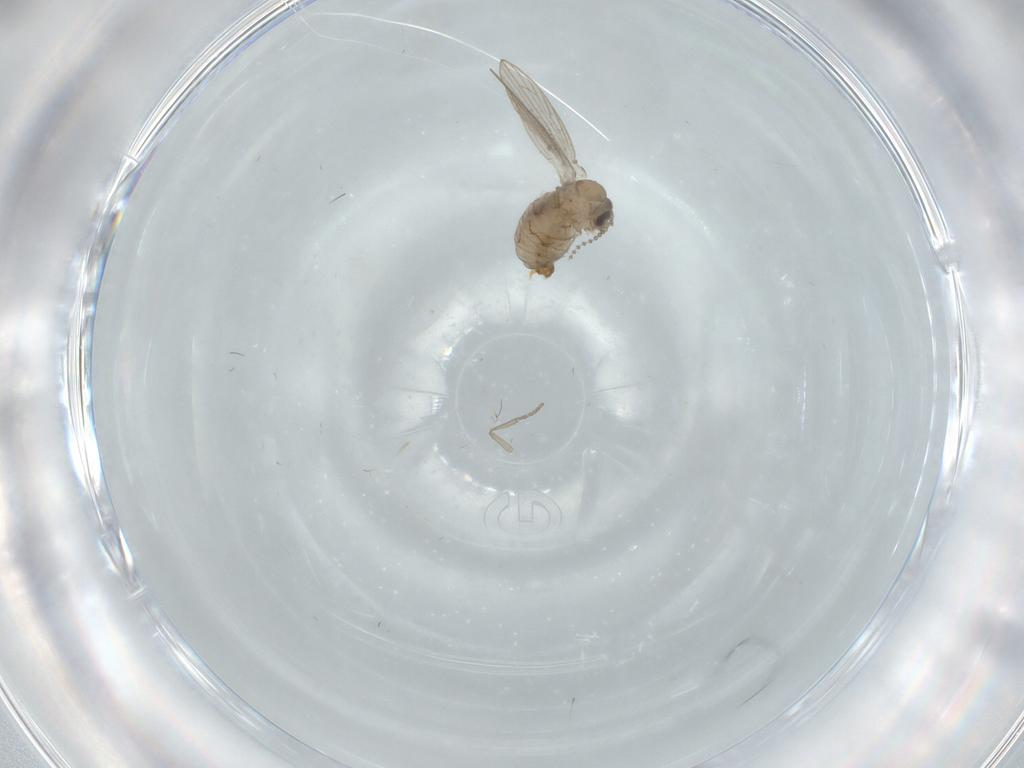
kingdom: Animalia
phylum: Arthropoda
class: Insecta
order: Diptera
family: Psychodidae
